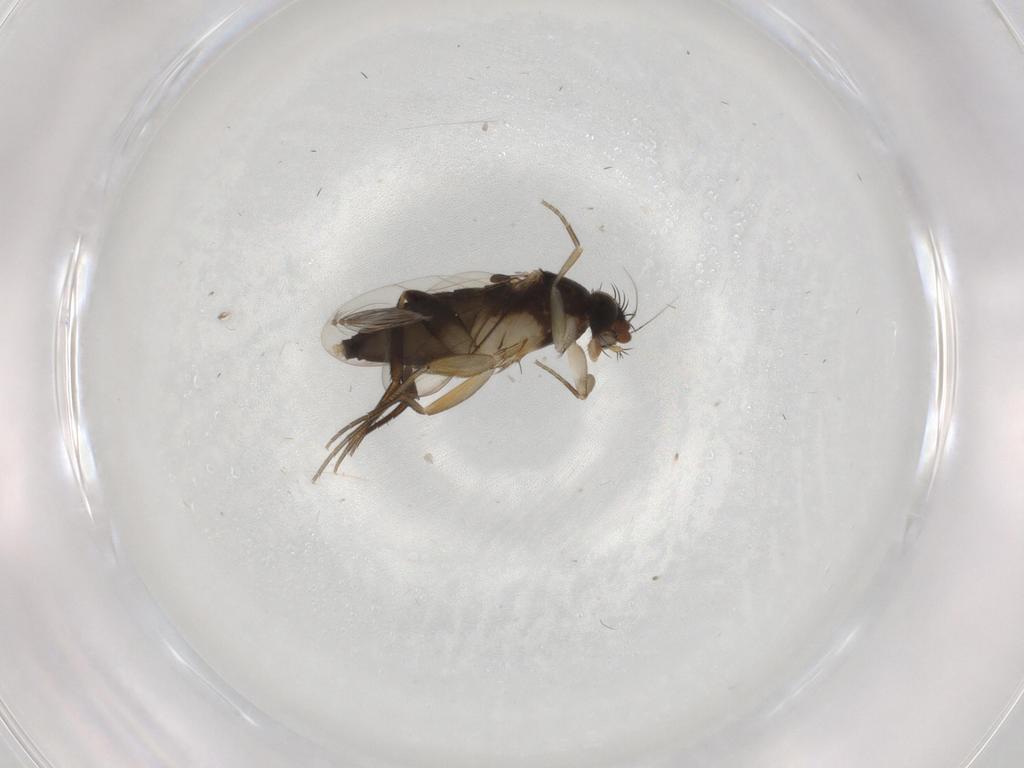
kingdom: Animalia
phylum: Arthropoda
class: Insecta
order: Diptera
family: Phoridae
